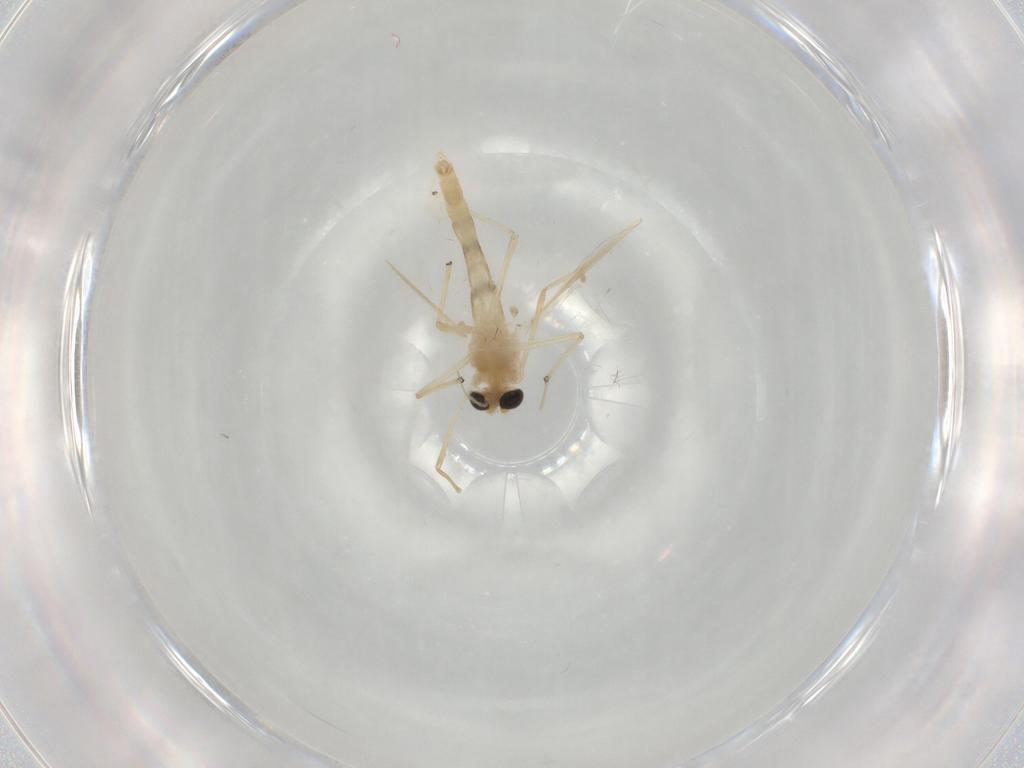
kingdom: Animalia
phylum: Arthropoda
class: Insecta
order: Diptera
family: Chironomidae
